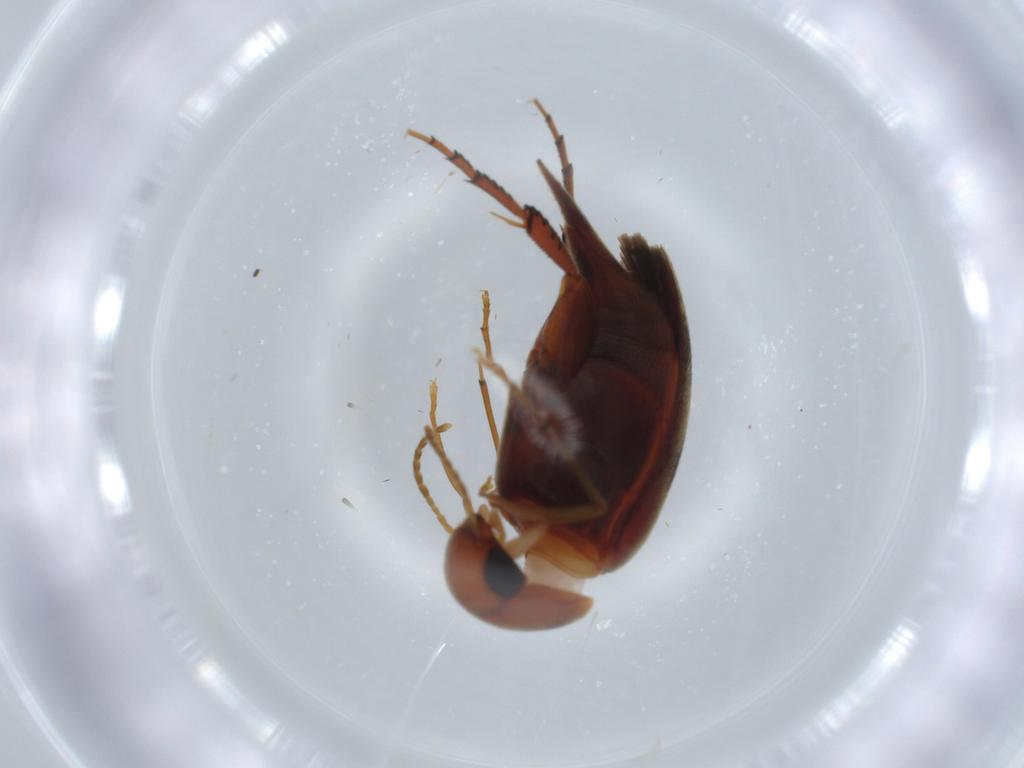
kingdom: Animalia
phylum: Arthropoda
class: Insecta
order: Coleoptera
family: Mordellidae
